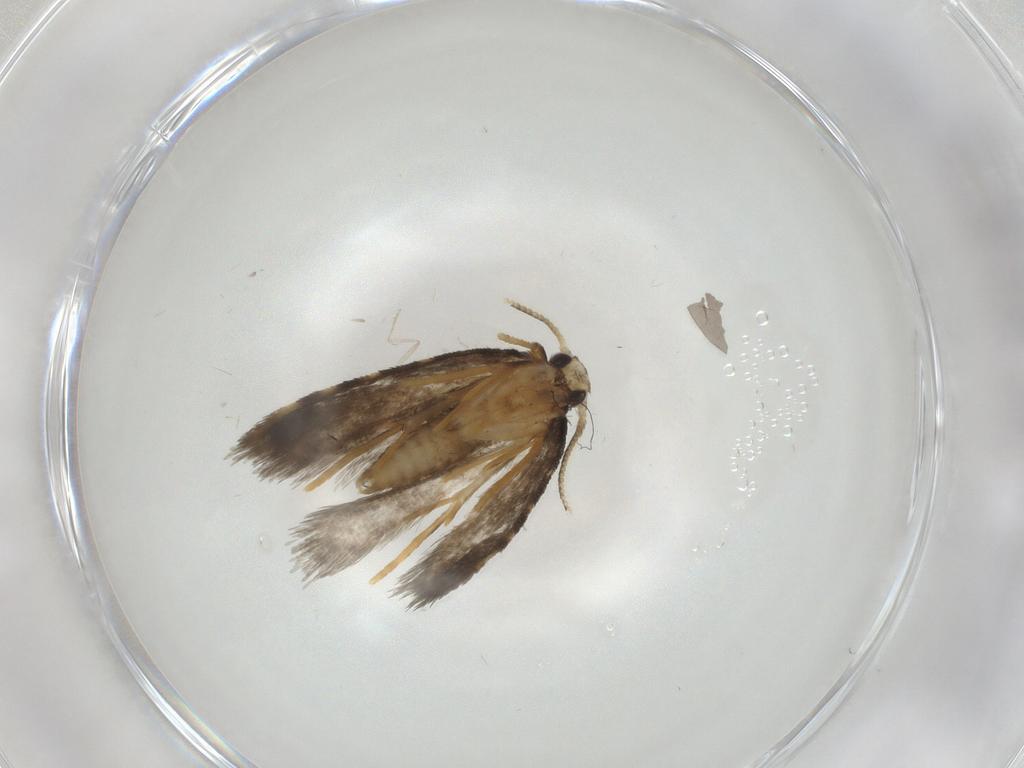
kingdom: Animalia
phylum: Arthropoda
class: Insecta
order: Lepidoptera
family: Psychidae
